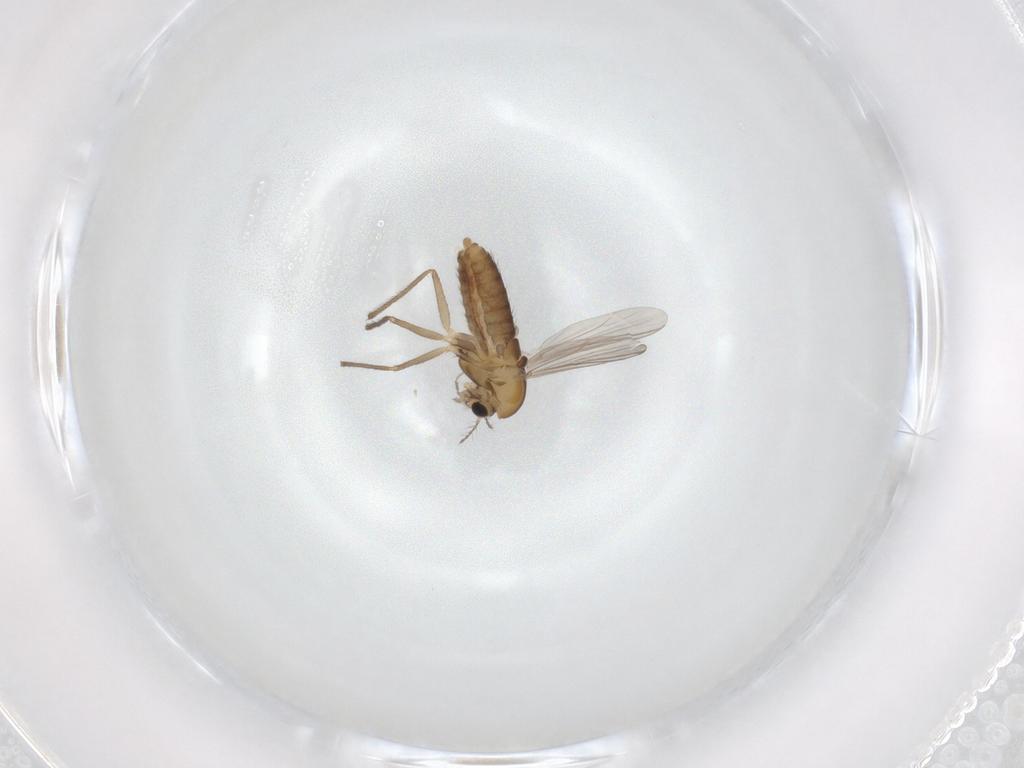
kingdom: Animalia
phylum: Arthropoda
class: Insecta
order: Diptera
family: Chironomidae
